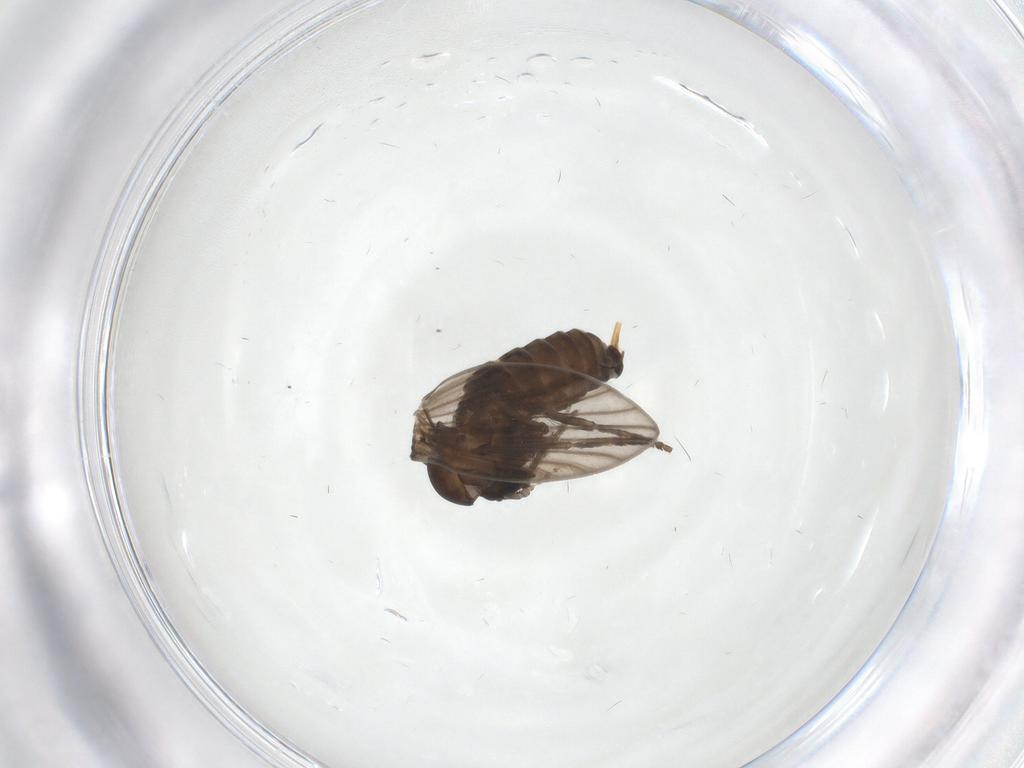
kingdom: Animalia
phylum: Arthropoda
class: Insecta
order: Diptera
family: Psychodidae
